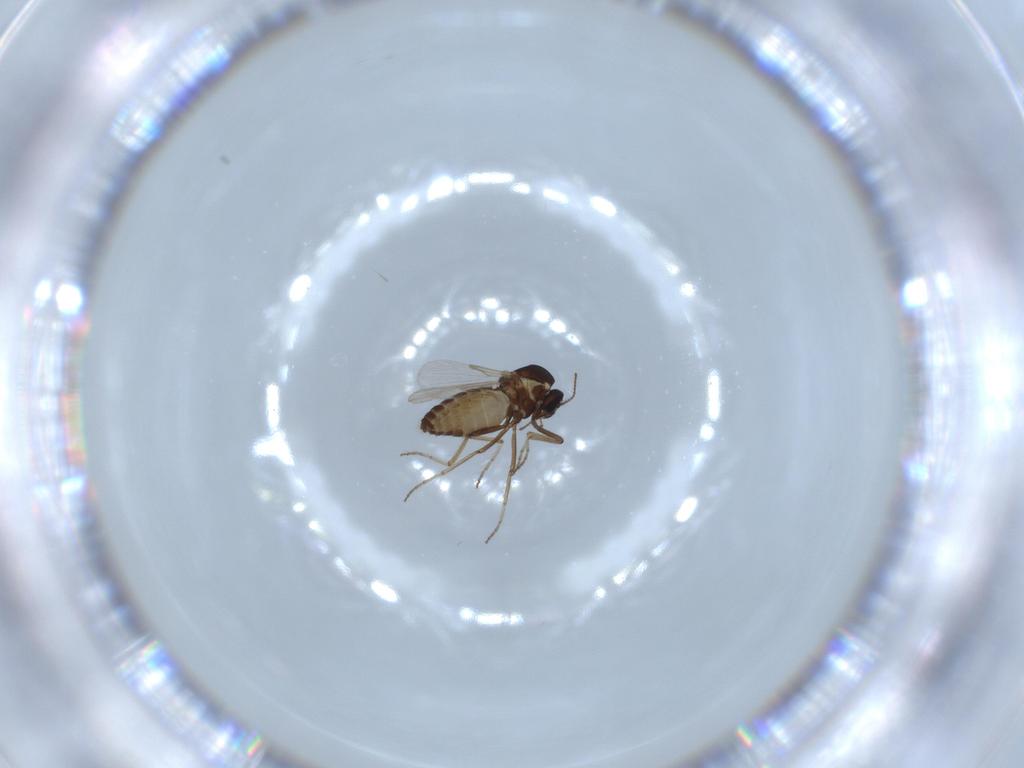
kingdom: Animalia
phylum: Arthropoda
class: Insecta
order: Diptera
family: Ceratopogonidae
